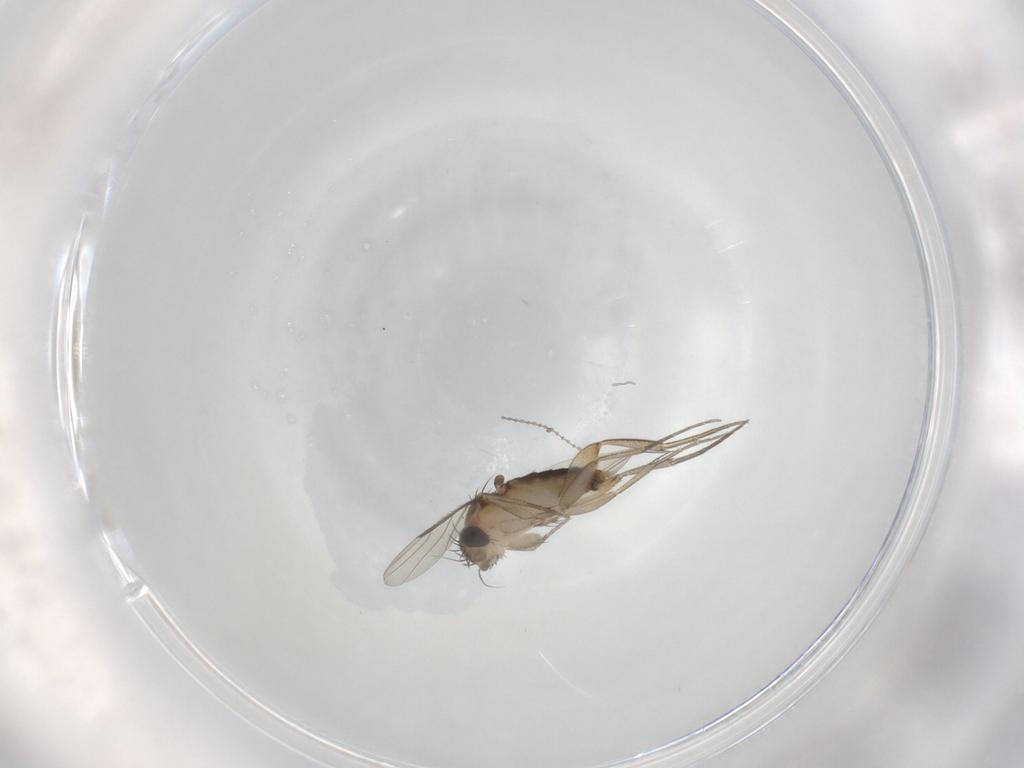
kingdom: Animalia
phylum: Arthropoda
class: Insecta
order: Diptera
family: Phoridae
